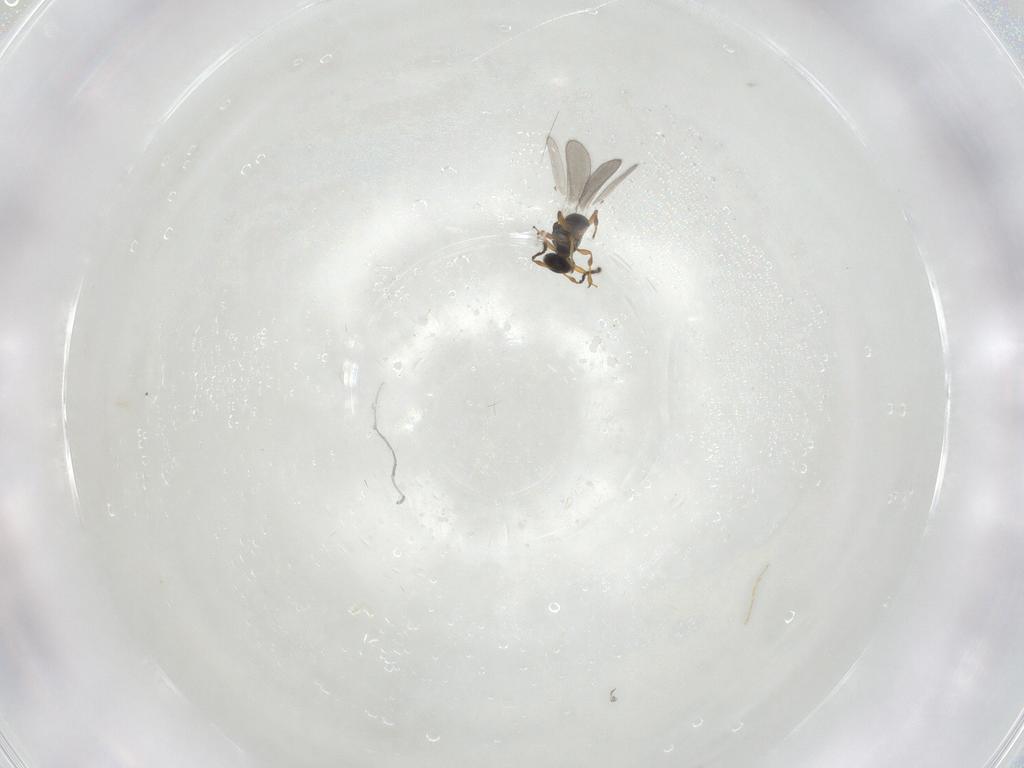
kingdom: Animalia
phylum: Arthropoda
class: Insecta
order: Hymenoptera
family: Platygastridae
